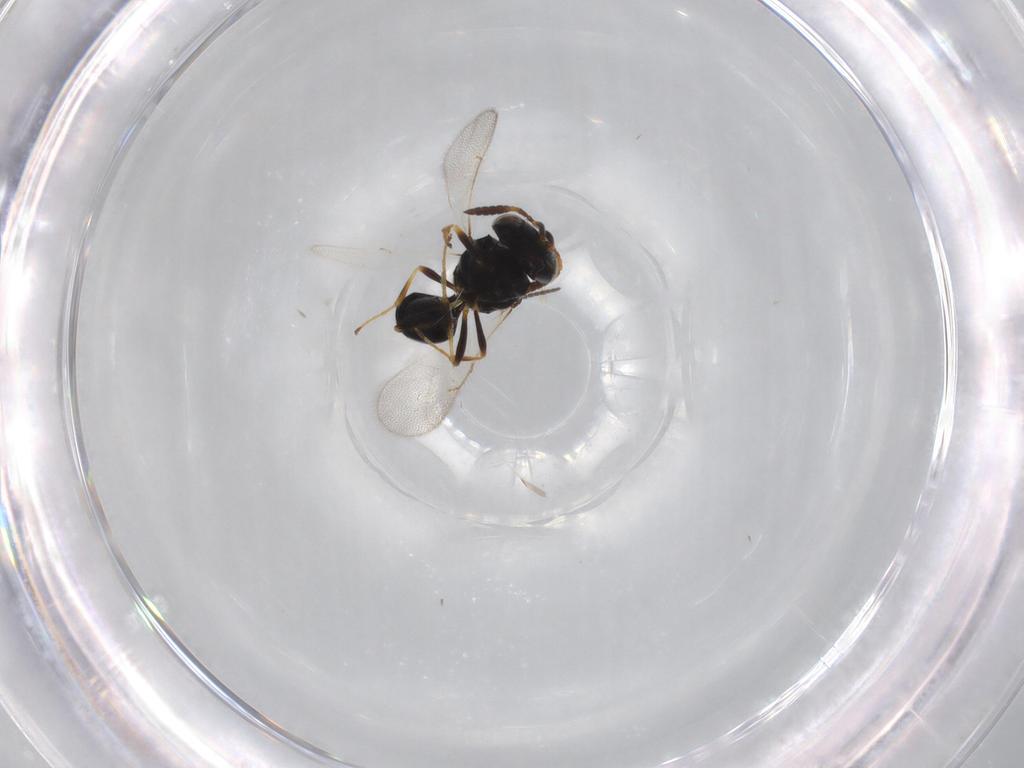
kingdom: Animalia
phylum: Arthropoda
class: Insecta
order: Hymenoptera
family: Scelionidae
